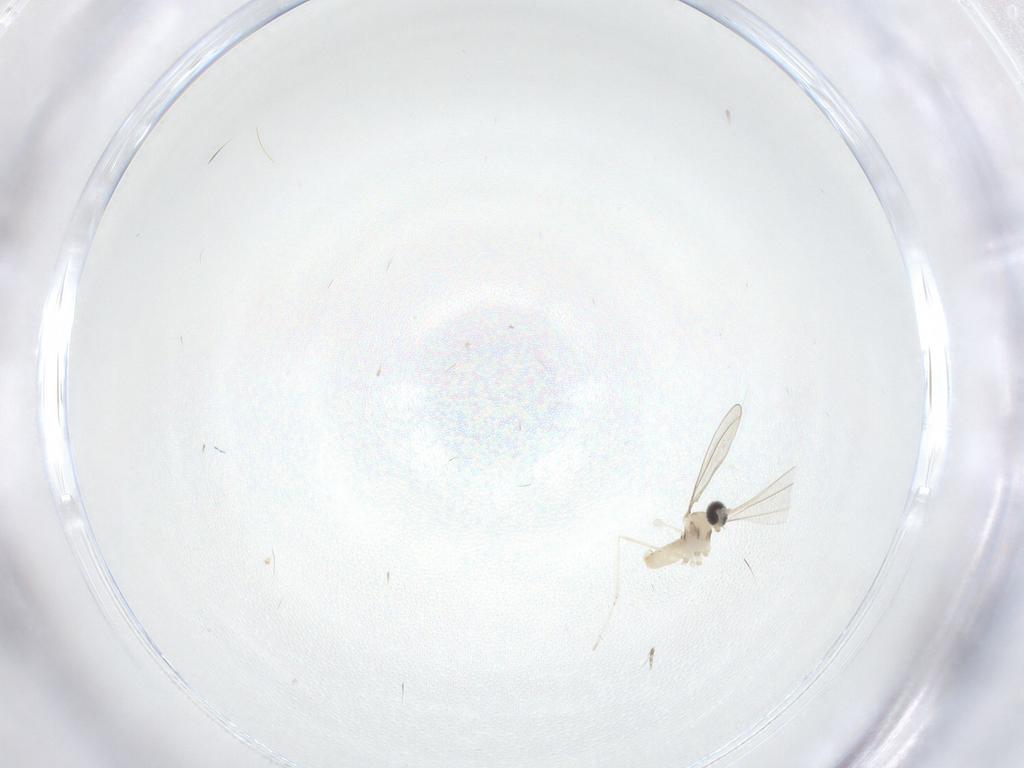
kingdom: Animalia
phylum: Arthropoda
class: Insecta
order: Diptera
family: Cecidomyiidae
